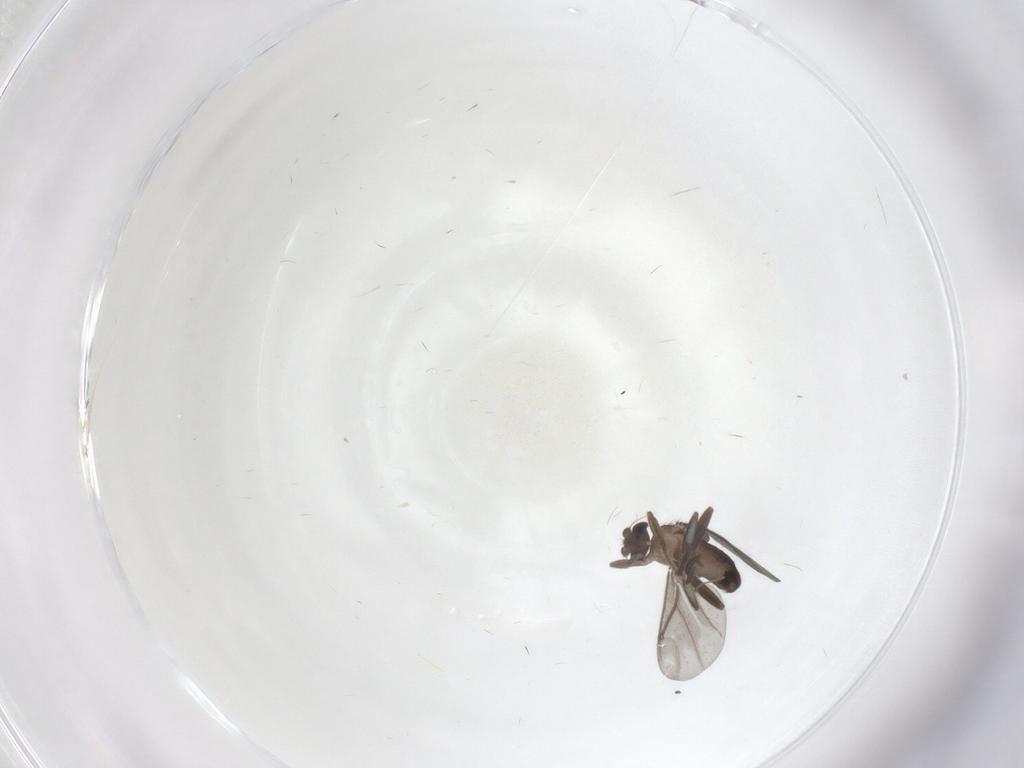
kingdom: Animalia
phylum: Arthropoda
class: Insecta
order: Diptera
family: Phoridae
